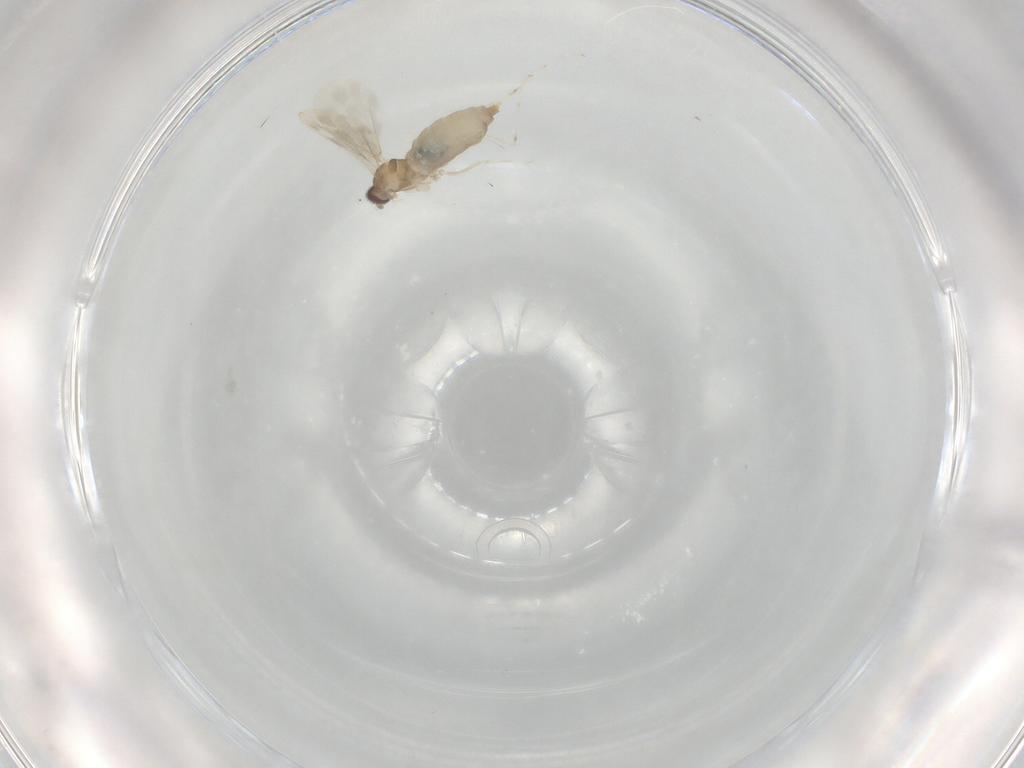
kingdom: Animalia
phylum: Arthropoda
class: Insecta
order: Diptera
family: Cecidomyiidae
